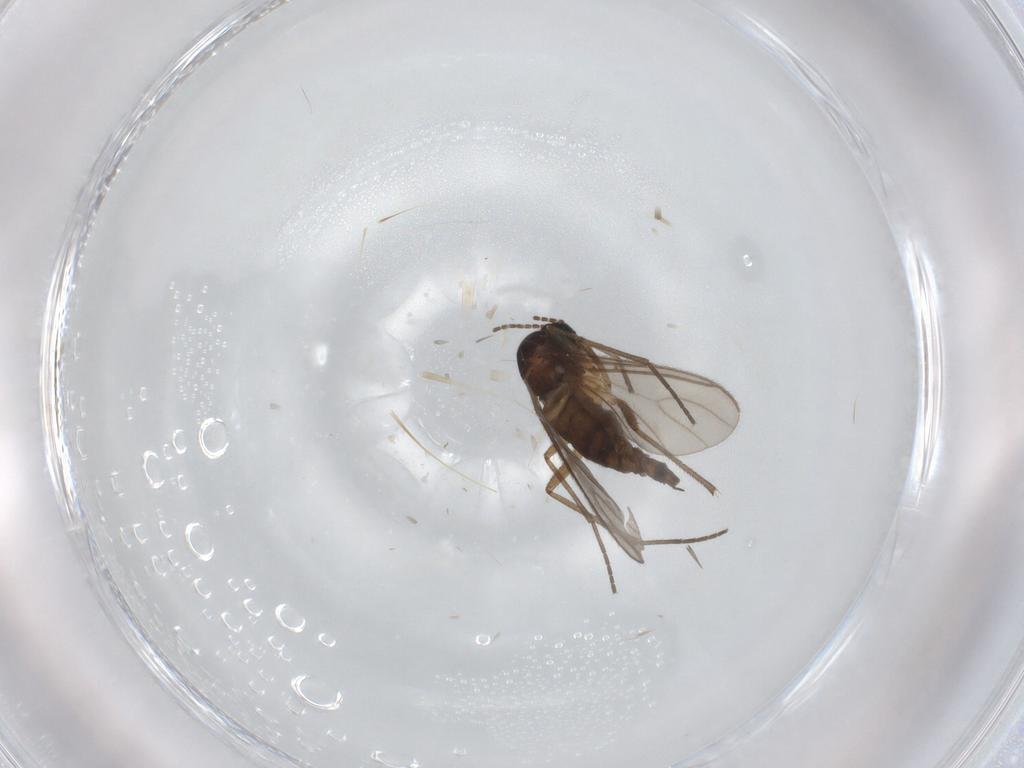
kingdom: Animalia
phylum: Arthropoda
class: Insecta
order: Diptera
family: Sciaridae
